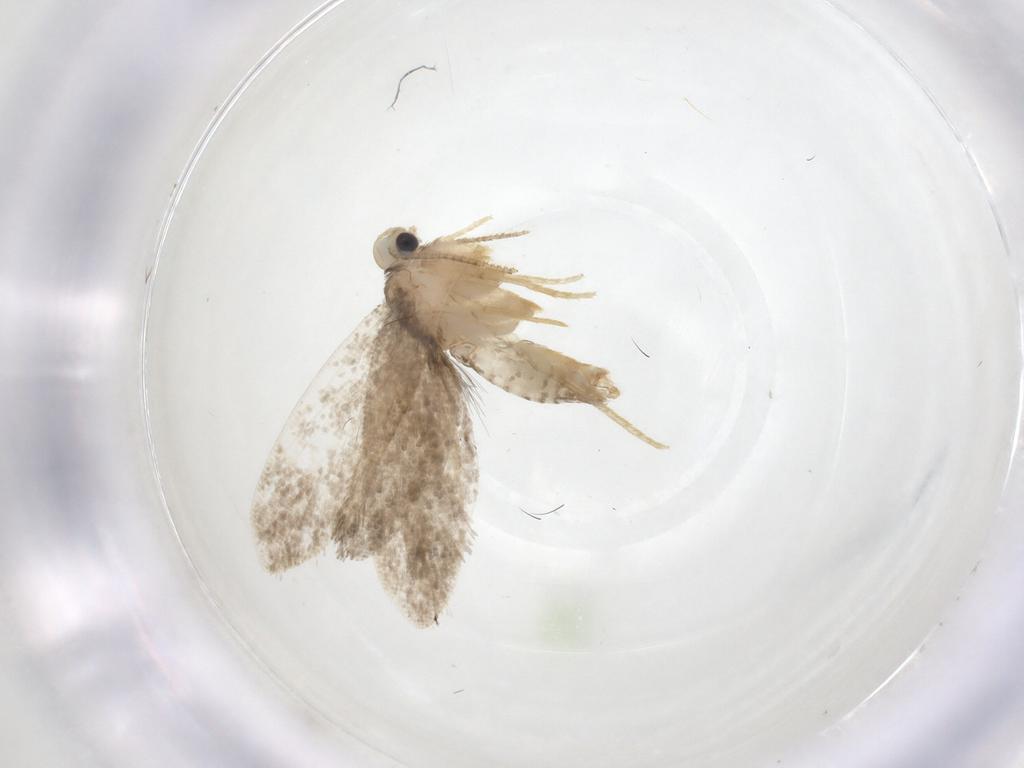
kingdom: Animalia
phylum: Arthropoda
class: Insecta
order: Lepidoptera
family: Psychidae
